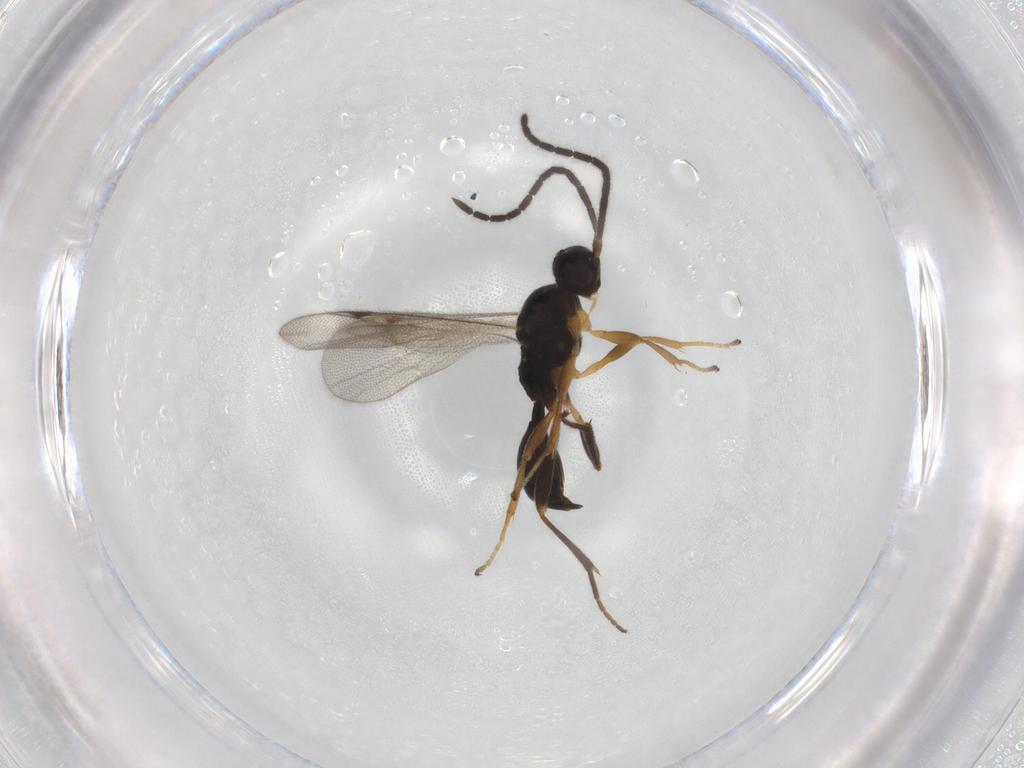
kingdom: Animalia
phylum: Arthropoda
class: Insecta
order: Hymenoptera
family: Proctotrupidae
